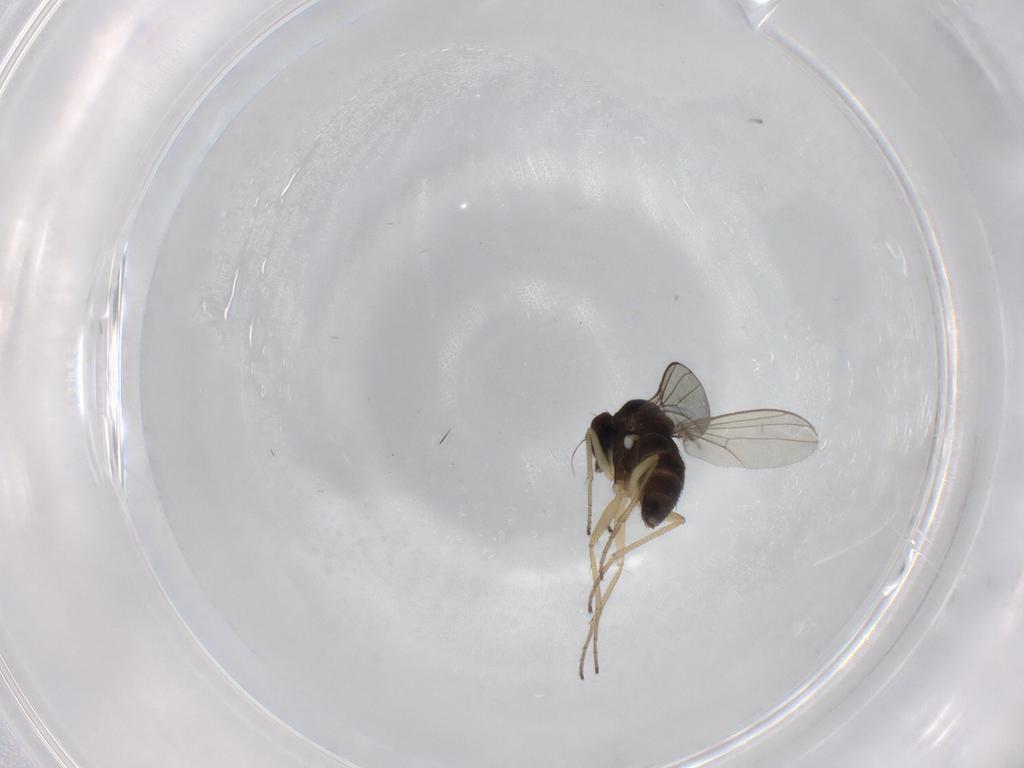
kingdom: Animalia
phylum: Arthropoda
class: Insecta
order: Diptera
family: Dolichopodidae
